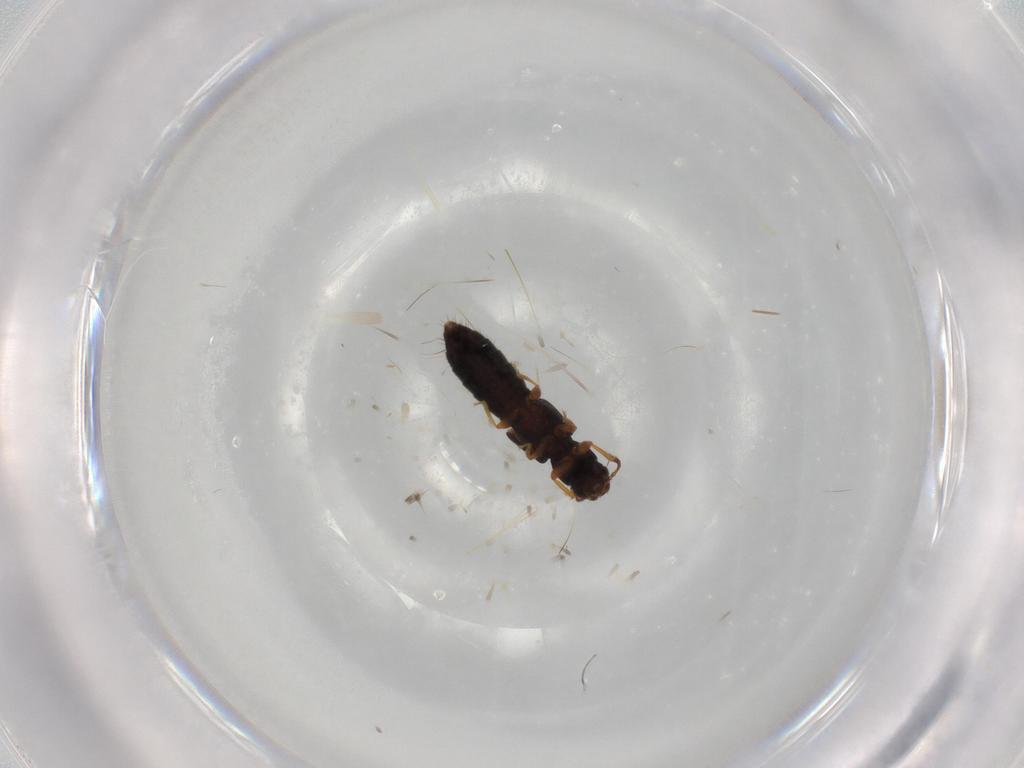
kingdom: Animalia
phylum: Arthropoda
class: Insecta
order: Coleoptera
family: Staphylinidae
